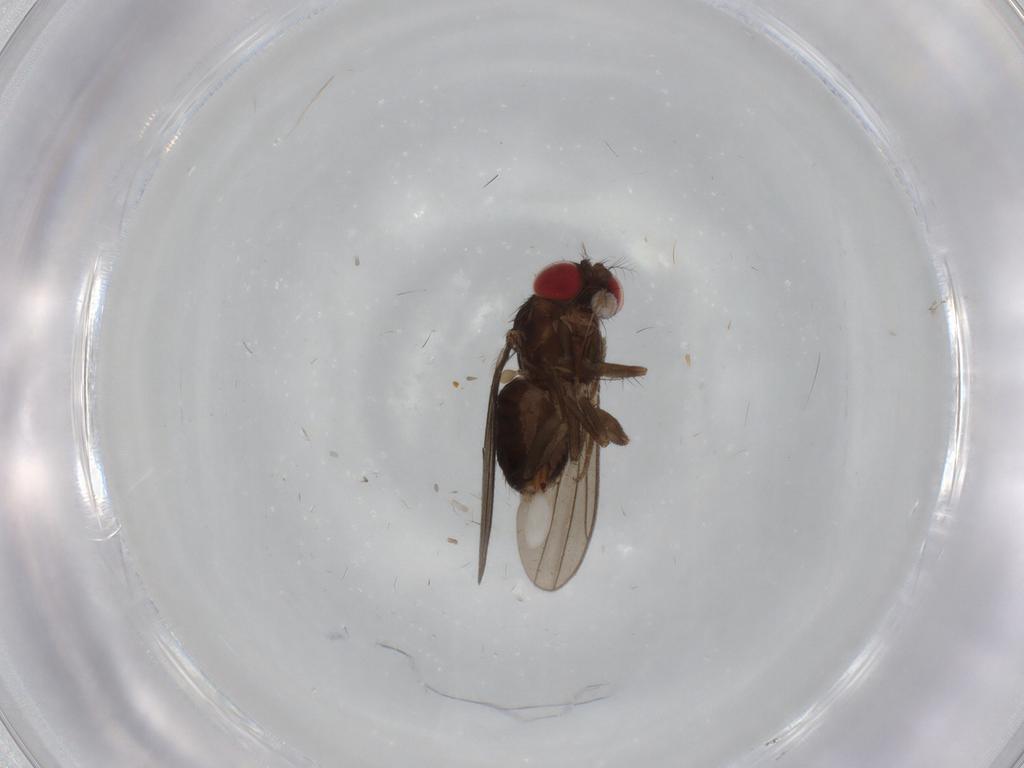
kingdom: Animalia
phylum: Arthropoda
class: Insecta
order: Diptera
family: Drosophilidae
